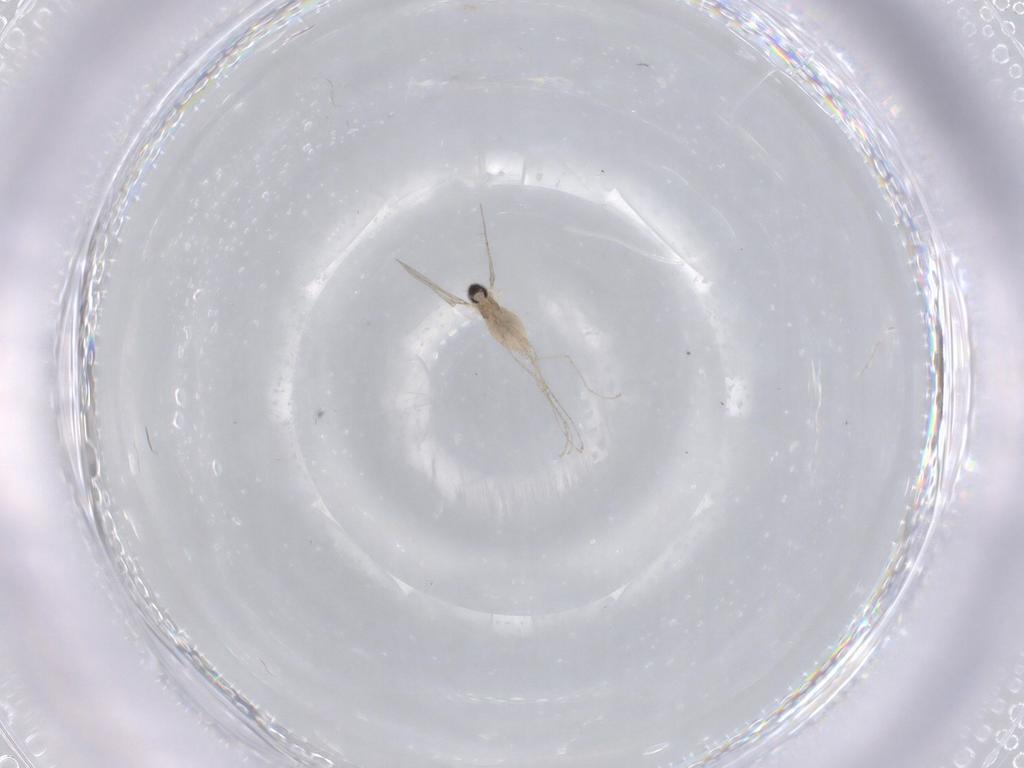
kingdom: Animalia
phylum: Arthropoda
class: Insecta
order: Diptera
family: Cecidomyiidae
